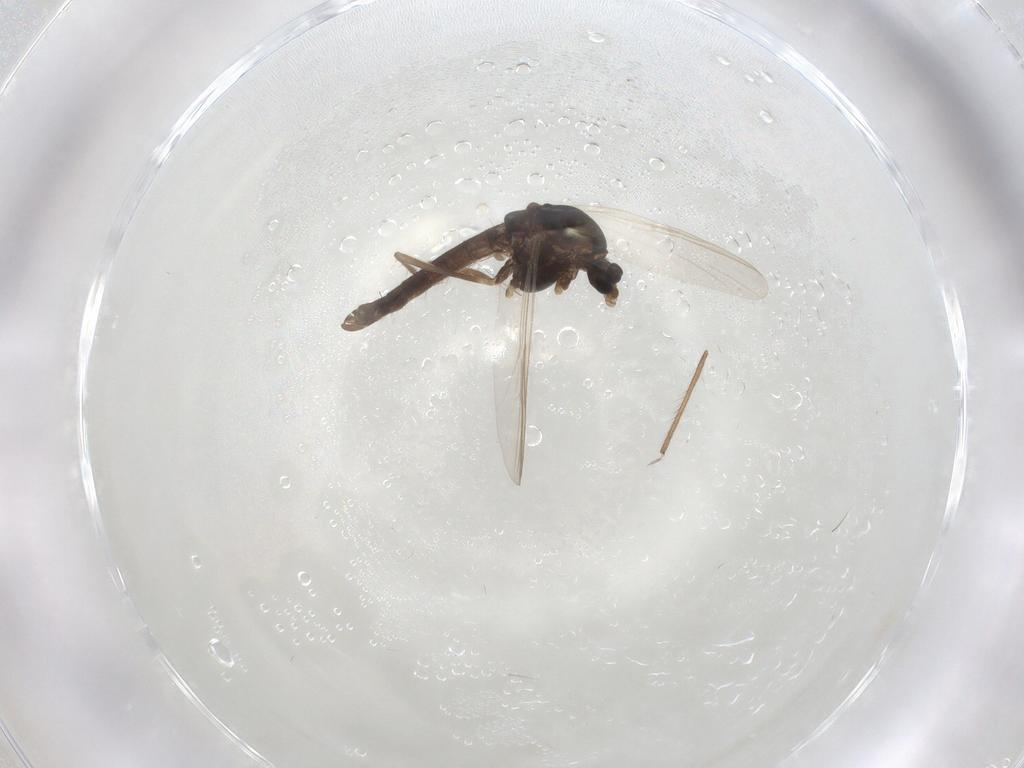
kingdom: Animalia
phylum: Arthropoda
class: Insecta
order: Diptera
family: Chironomidae
